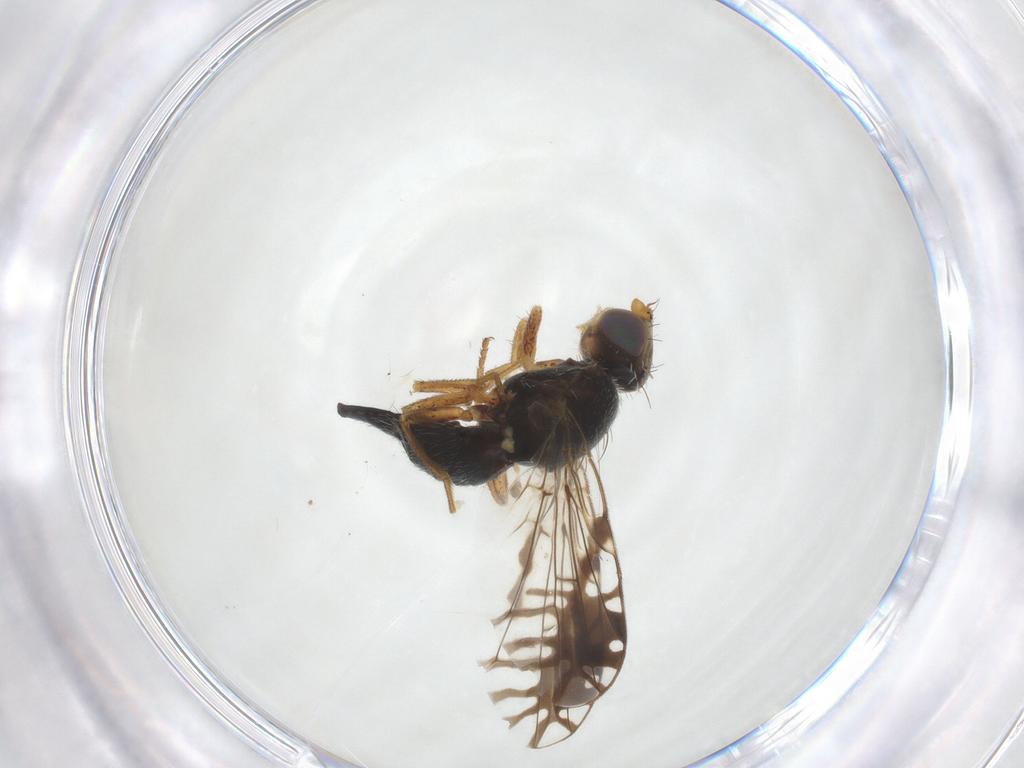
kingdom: Animalia
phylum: Arthropoda
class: Insecta
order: Diptera
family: Tephritidae
